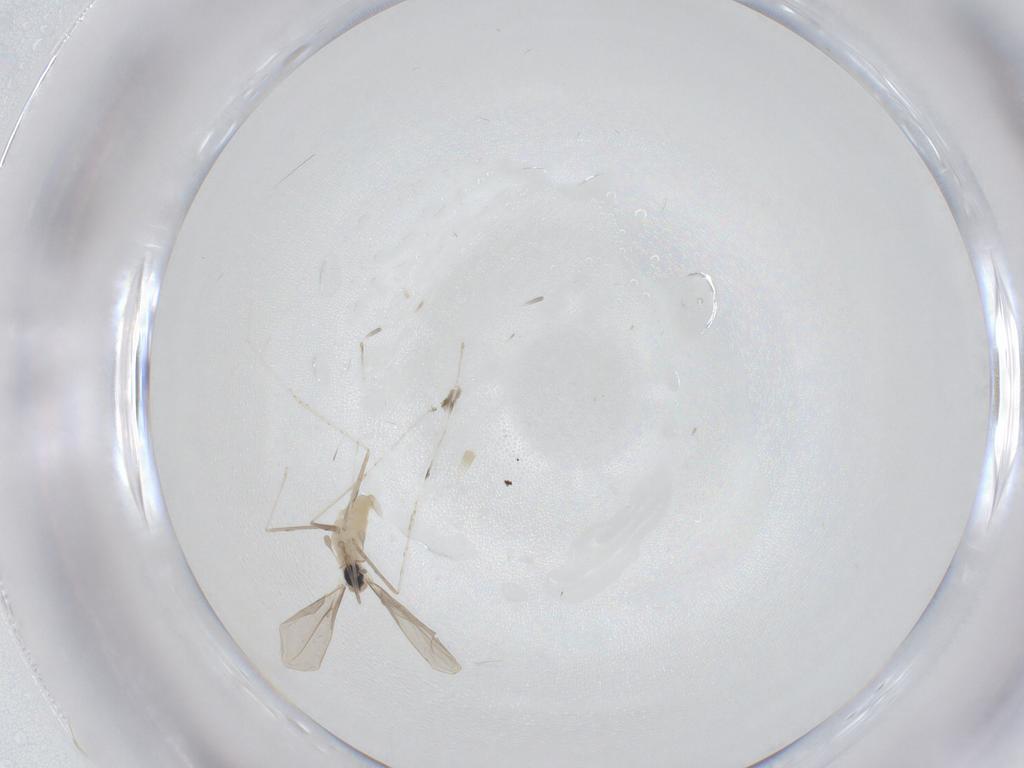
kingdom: Animalia
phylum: Arthropoda
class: Insecta
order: Diptera
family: Cecidomyiidae
